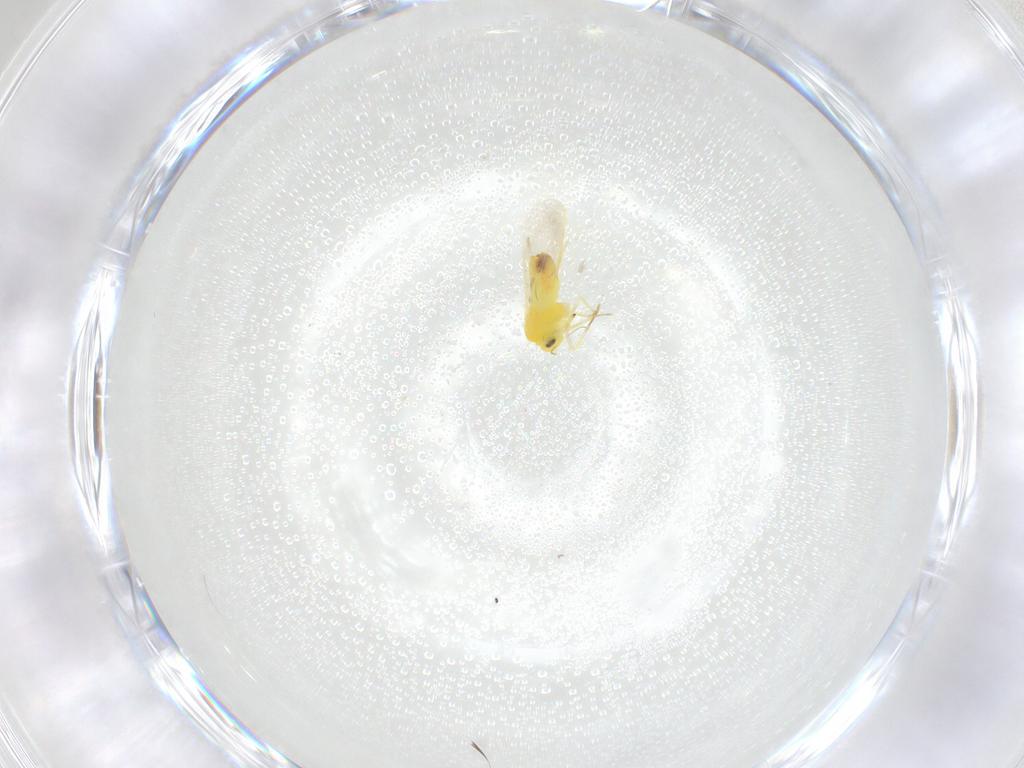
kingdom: Animalia
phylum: Arthropoda
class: Insecta
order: Hemiptera
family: Aleyrodidae
